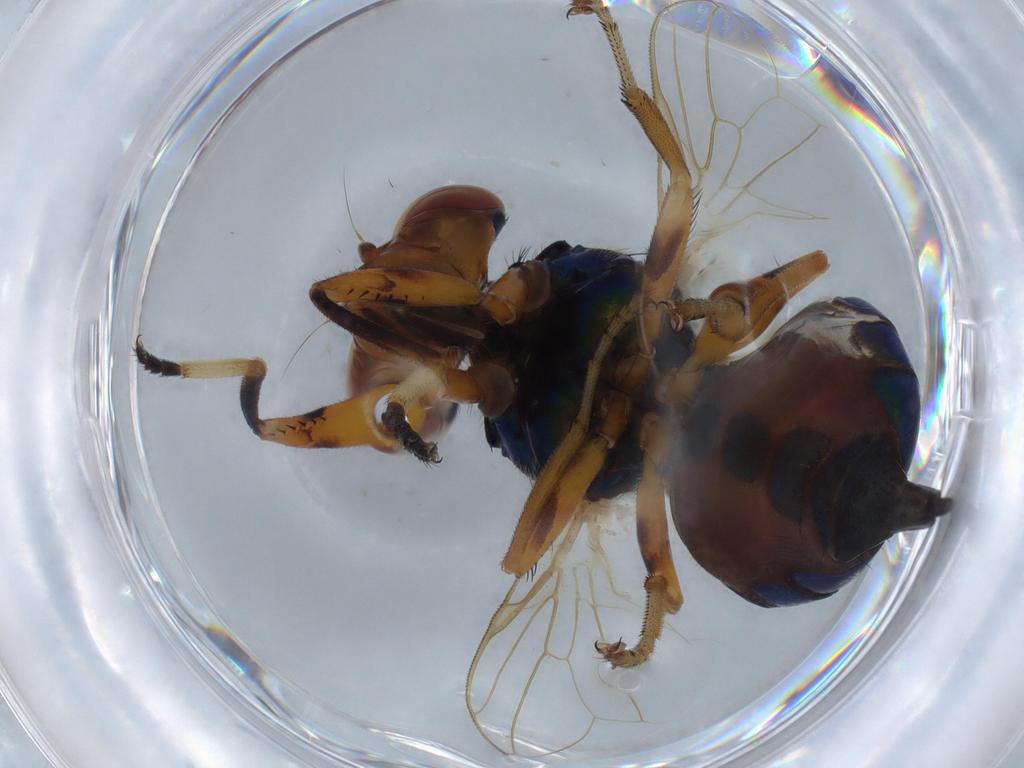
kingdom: Animalia
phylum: Arthropoda
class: Insecta
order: Diptera
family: Scatopsidae
